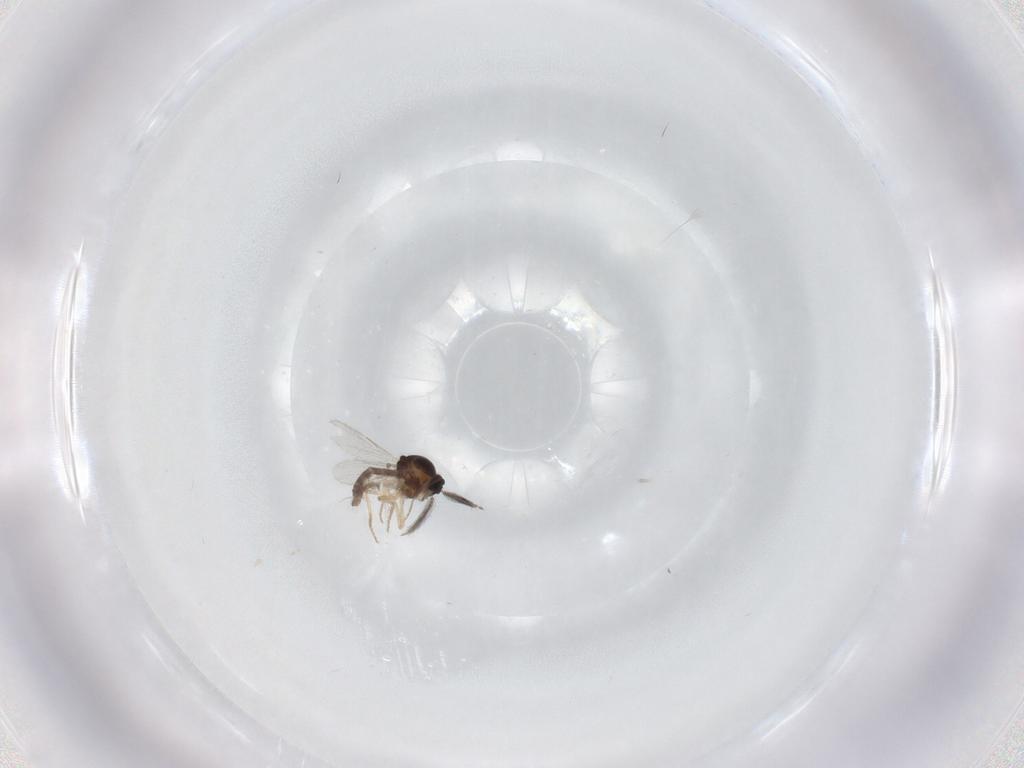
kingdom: Animalia
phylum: Arthropoda
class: Insecta
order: Diptera
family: Ceratopogonidae
